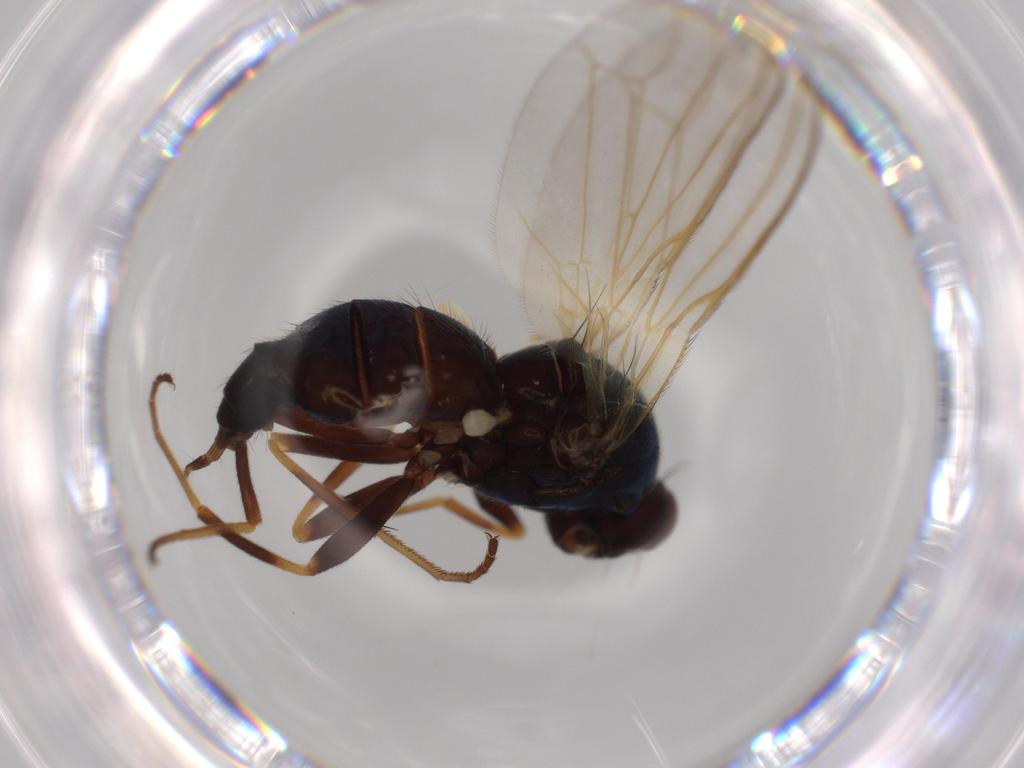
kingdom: Animalia
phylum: Arthropoda
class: Insecta
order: Diptera
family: Hybotidae
